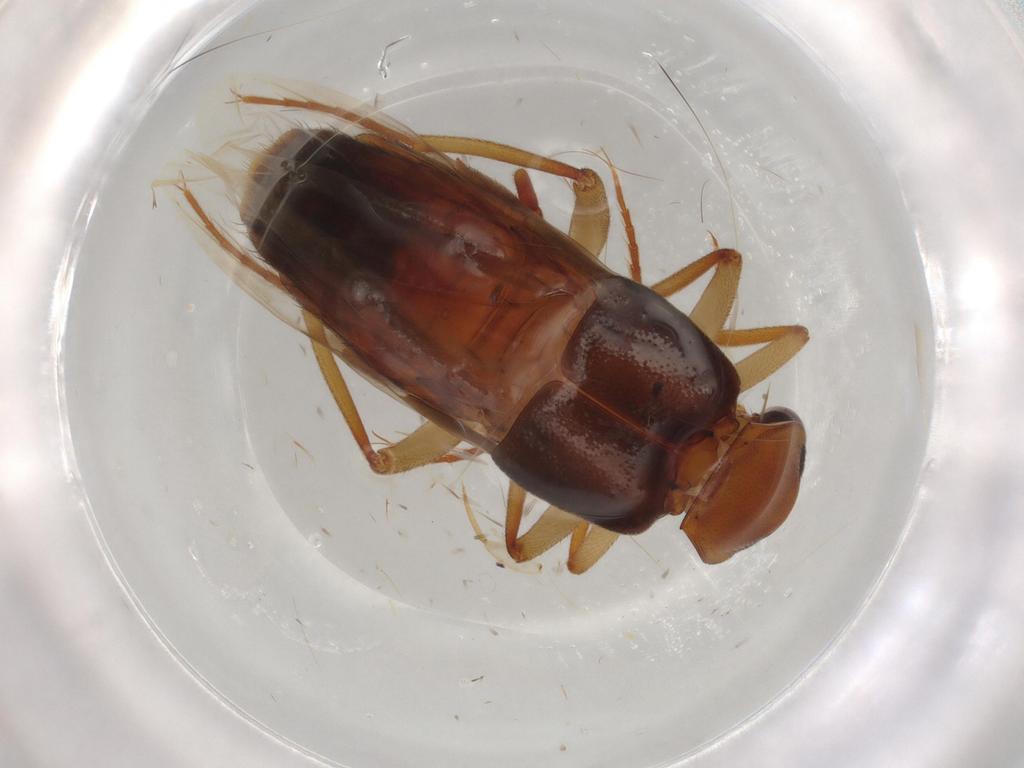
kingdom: Animalia
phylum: Arthropoda
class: Insecta
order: Coleoptera
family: Staphylinidae
